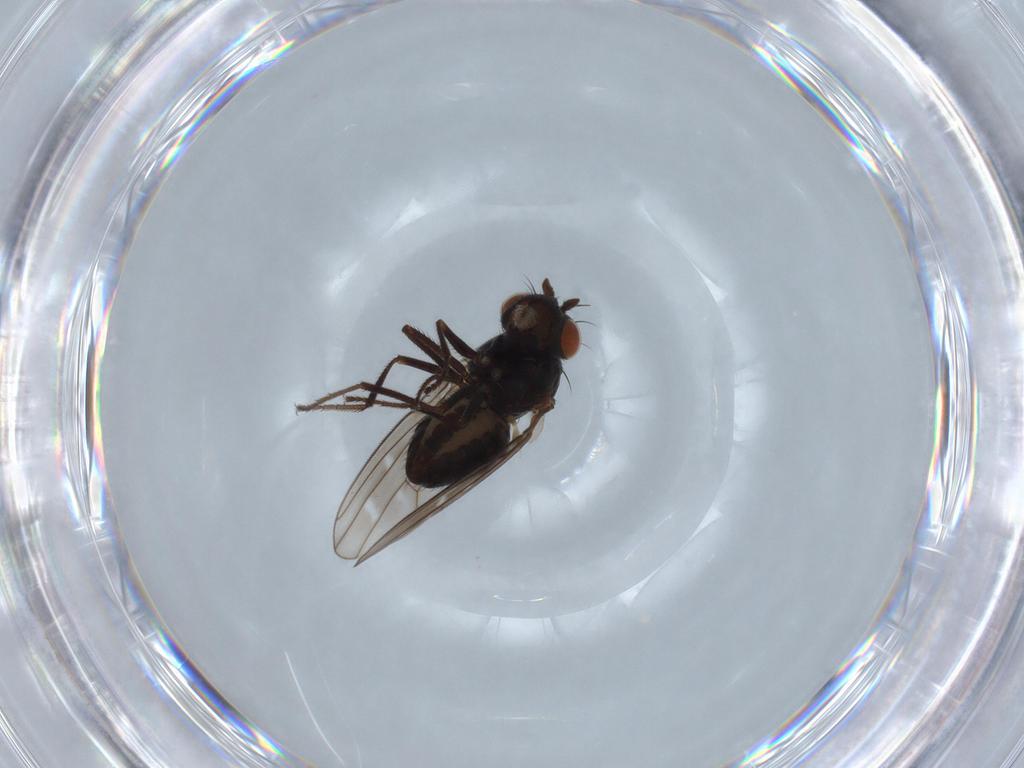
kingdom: Animalia
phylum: Arthropoda
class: Insecta
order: Diptera
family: Ephydridae
